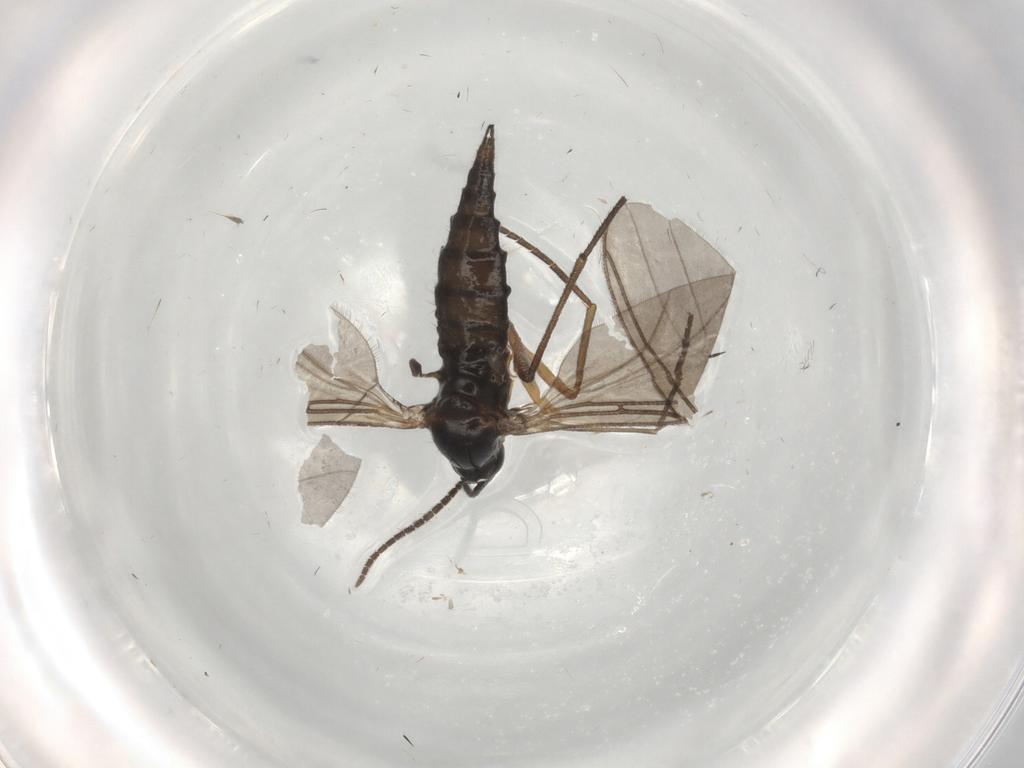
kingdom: Animalia
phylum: Arthropoda
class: Insecta
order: Diptera
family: Sciaridae
